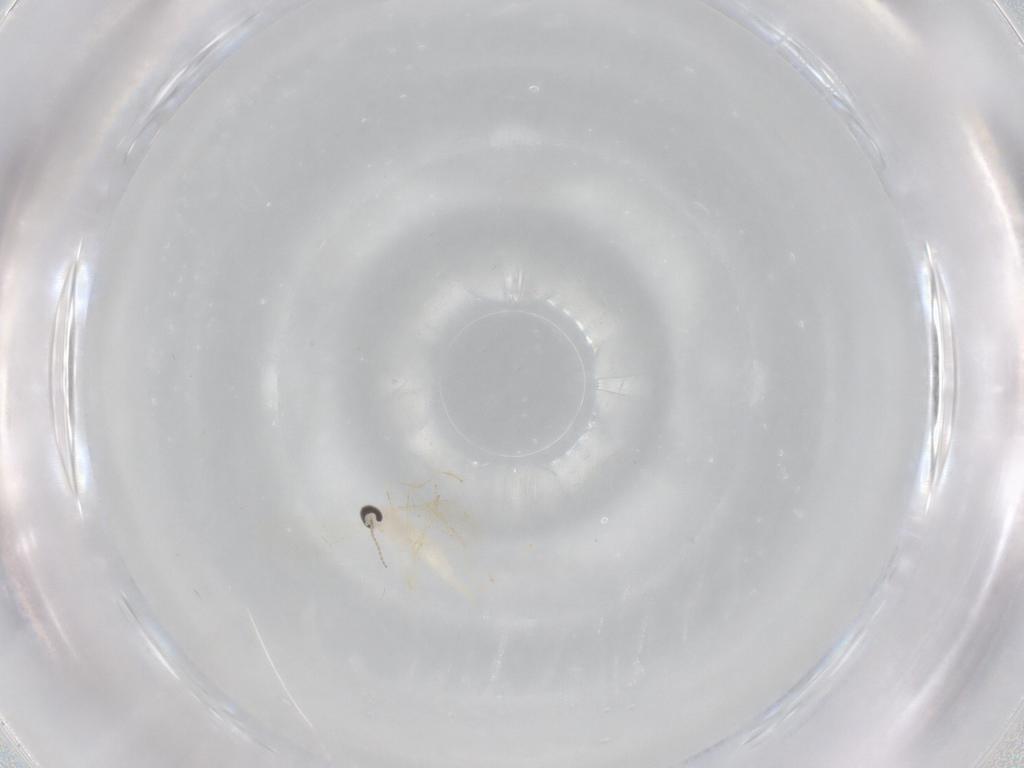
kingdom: Animalia
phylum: Arthropoda
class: Insecta
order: Diptera
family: Cecidomyiidae
